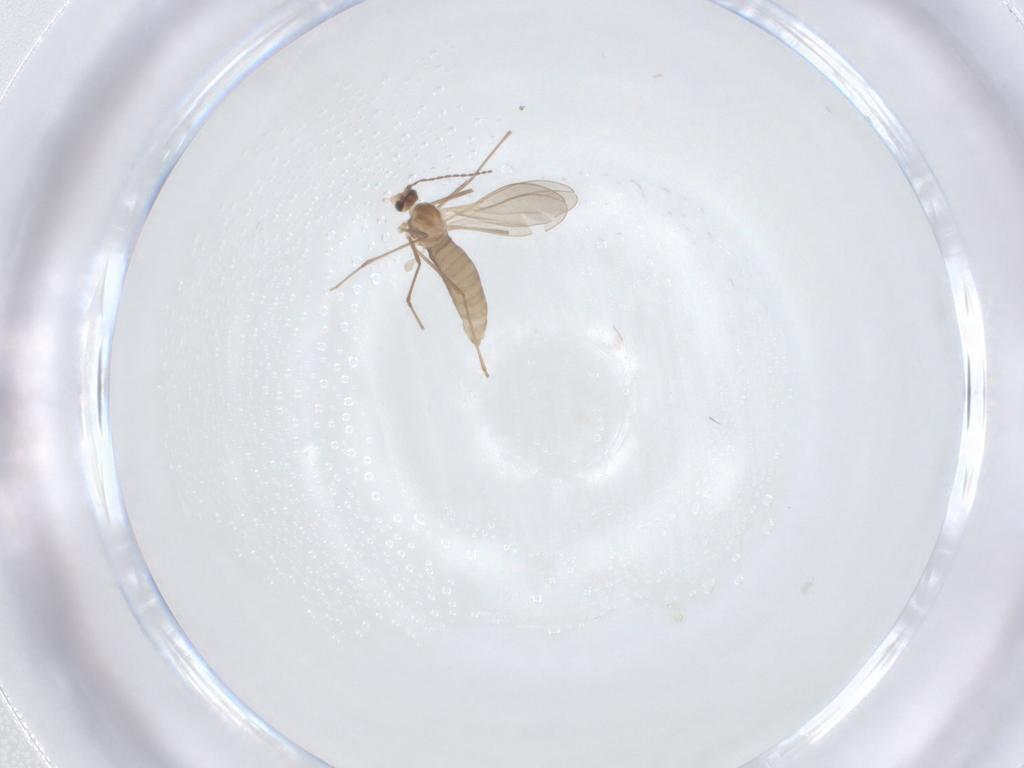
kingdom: Animalia
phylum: Arthropoda
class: Insecta
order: Diptera
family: Cecidomyiidae
